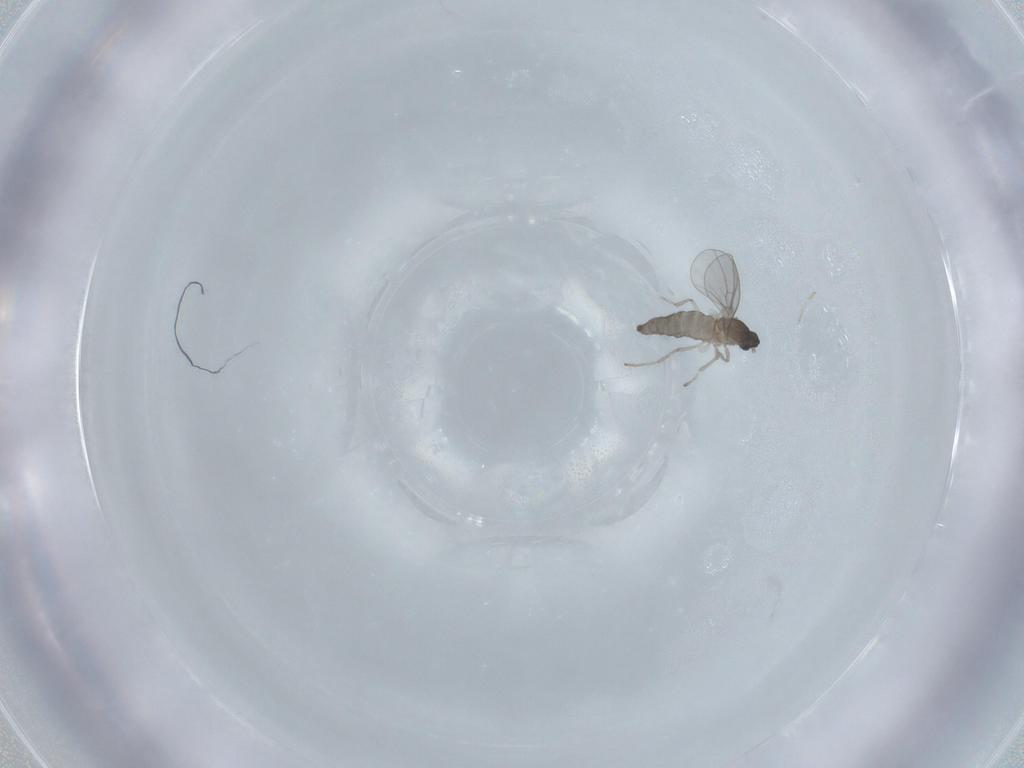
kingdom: Animalia
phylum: Arthropoda
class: Insecta
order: Diptera
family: Cecidomyiidae
